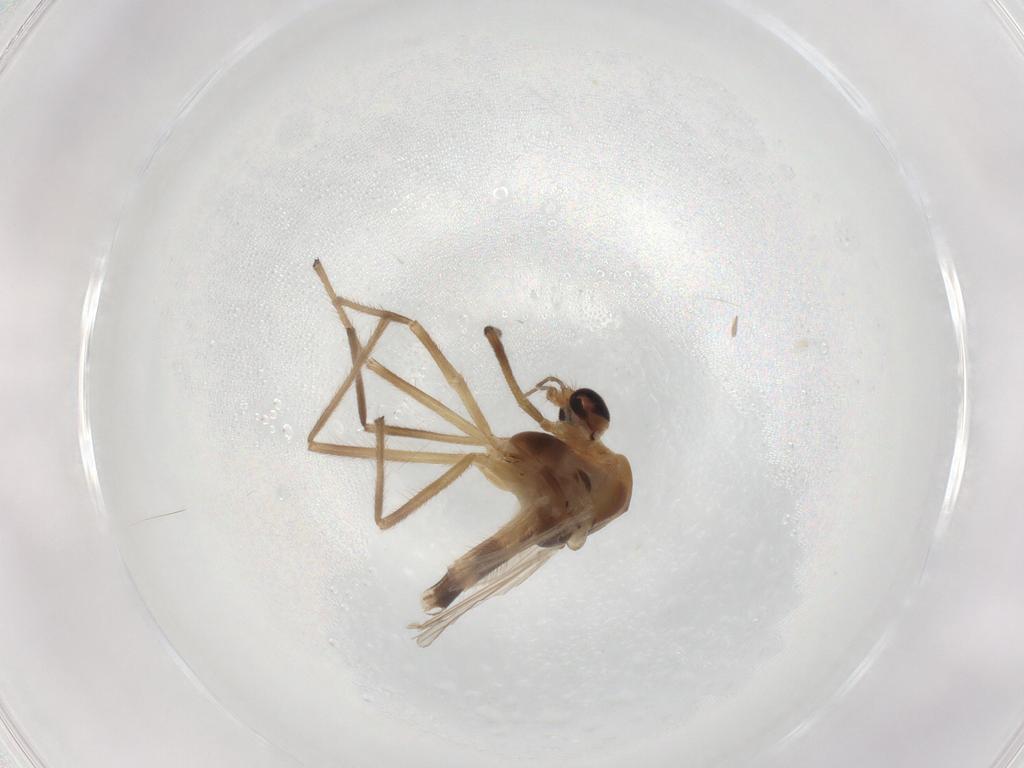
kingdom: Animalia
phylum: Arthropoda
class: Insecta
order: Diptera
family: Chironomidae
